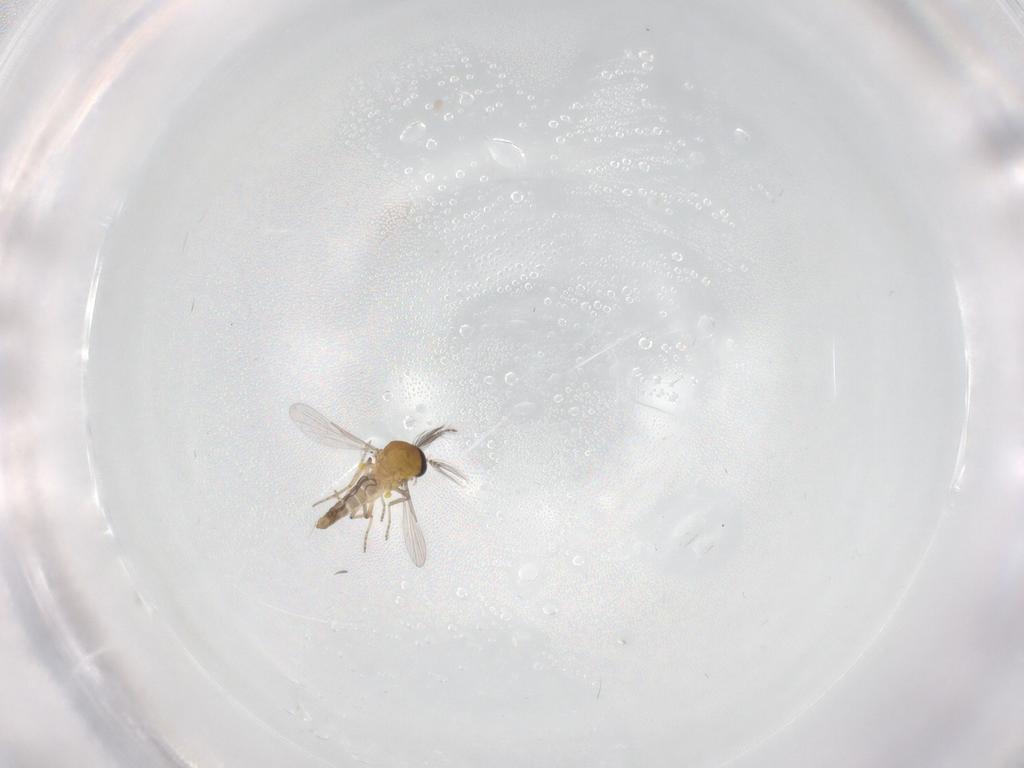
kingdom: Animalia
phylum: Arthropoda
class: Insecta
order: Diptera
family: Ceratopogonidae
